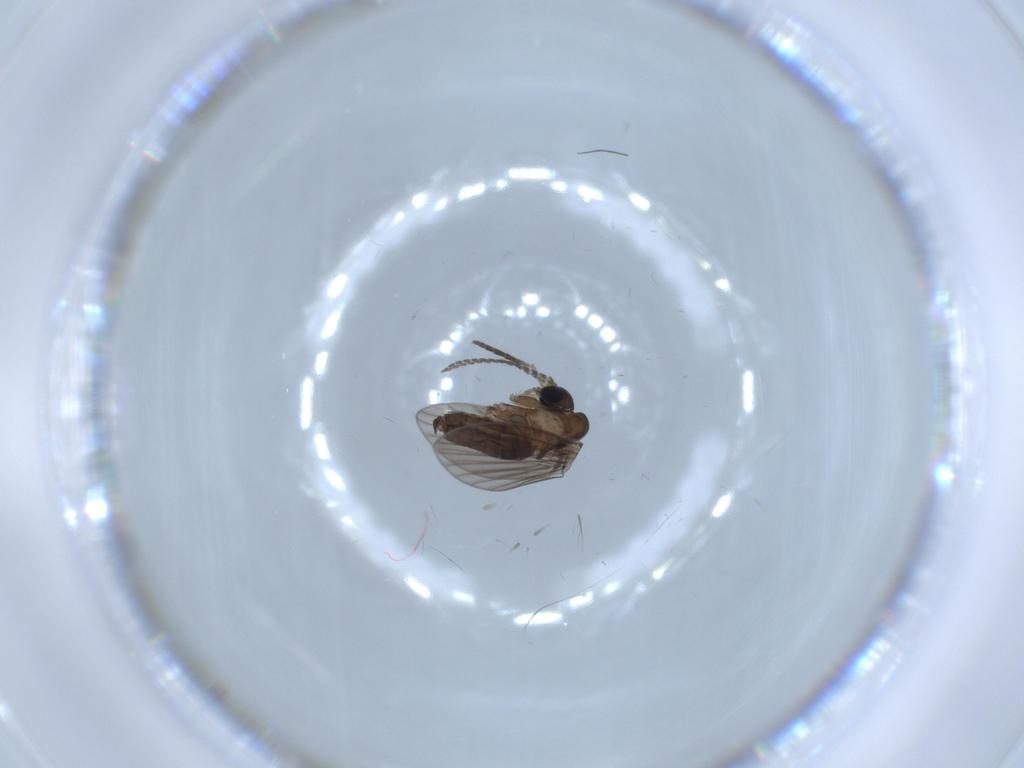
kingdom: Animalia
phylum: Arthropoda
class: Insecta
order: Diptera
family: Psychodidae
